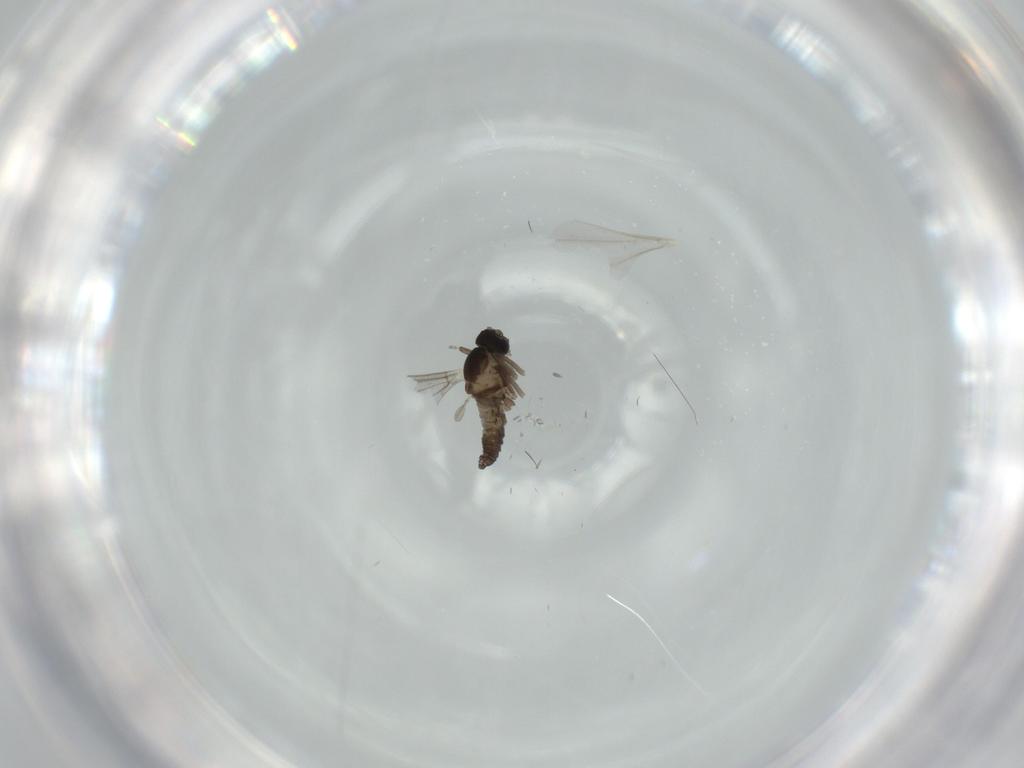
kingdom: Animalia
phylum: Arthropoda
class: Insecta
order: Diptera
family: Cecidomyiidae
